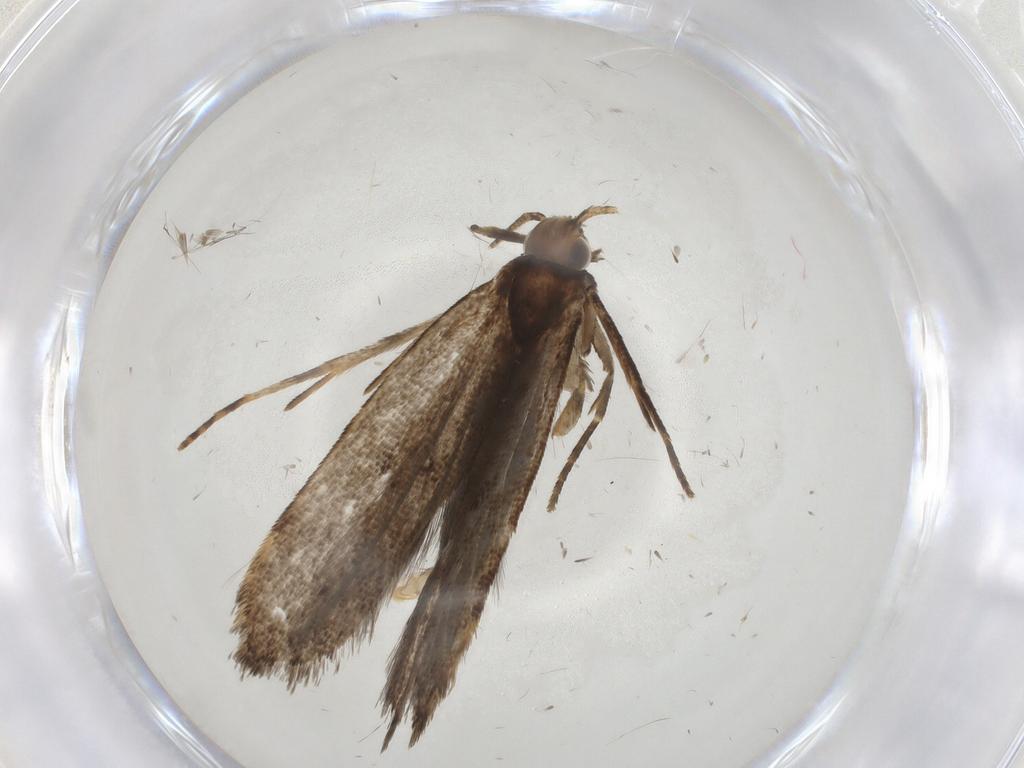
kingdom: Animalia
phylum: Arthropoda
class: Insecta
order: Lepidoptera
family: Gelechiidae
